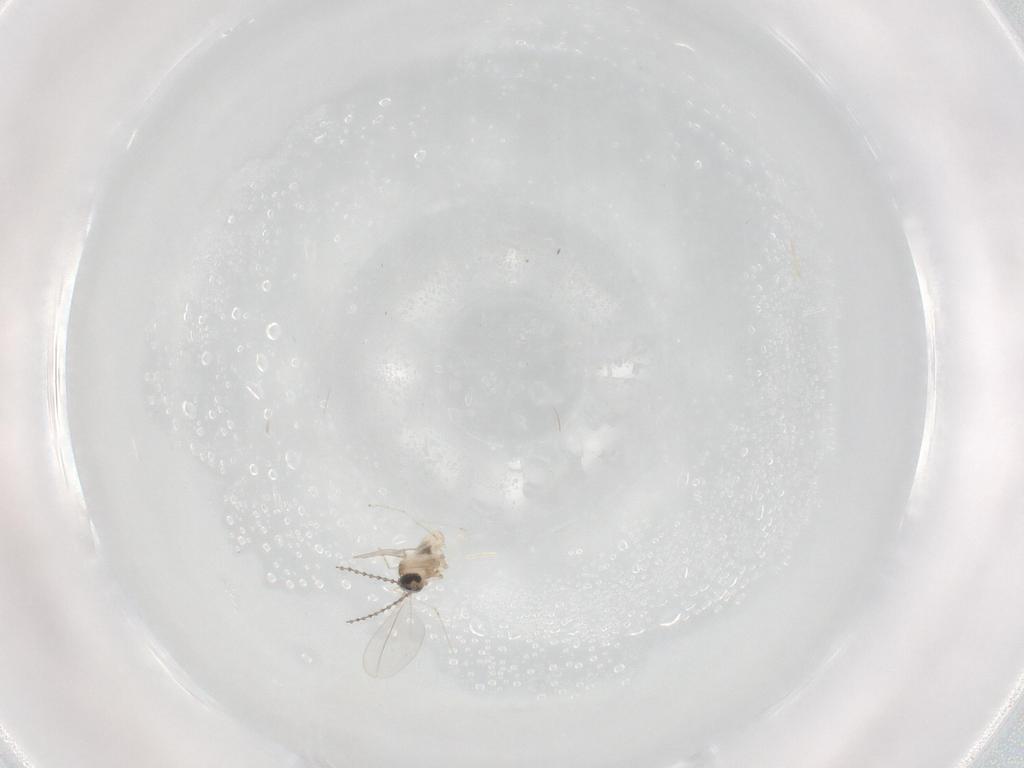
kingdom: Animalia
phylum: Arthropoda
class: Insecta
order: Diptera
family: Cecidomyiidae
